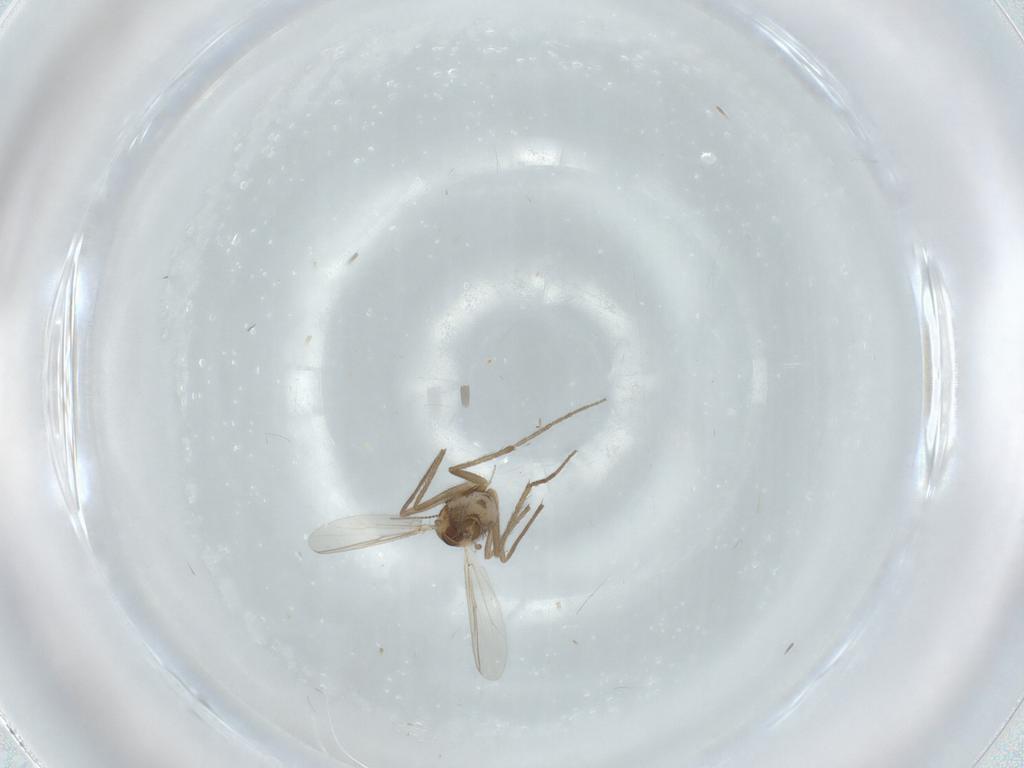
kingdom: Animalia
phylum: Arthropoda
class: Insecta
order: Diptera
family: Chironomidae
